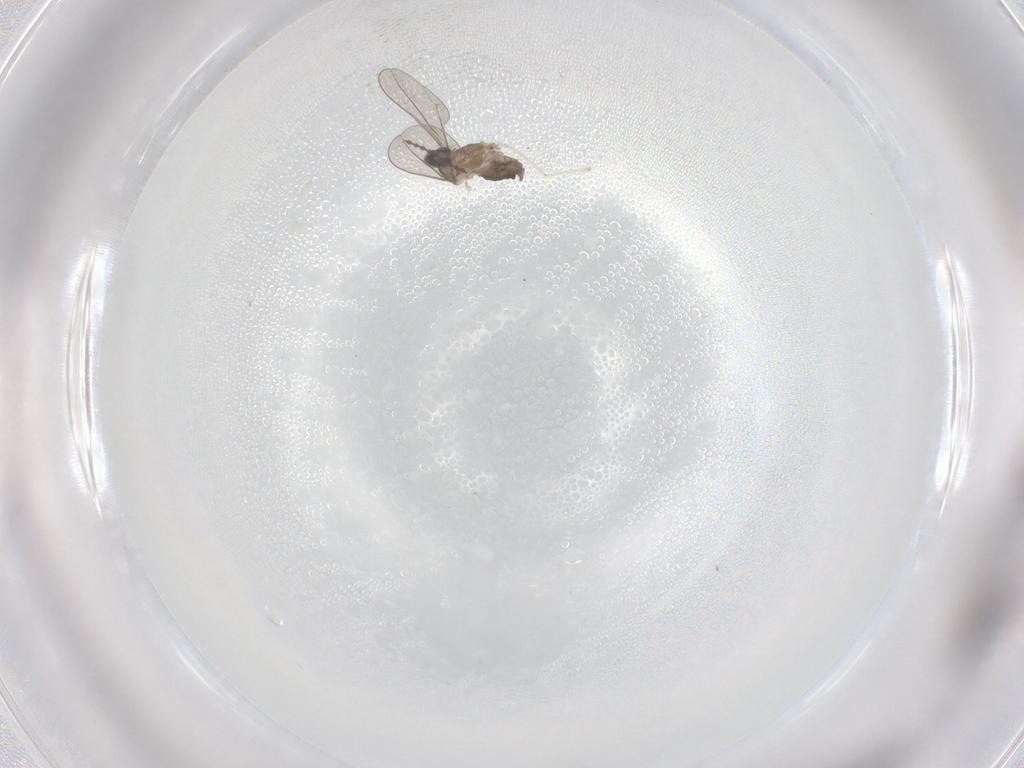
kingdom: Animalia
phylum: Arthropoda
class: Insecta
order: Diptera
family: Cecidomyiidae
